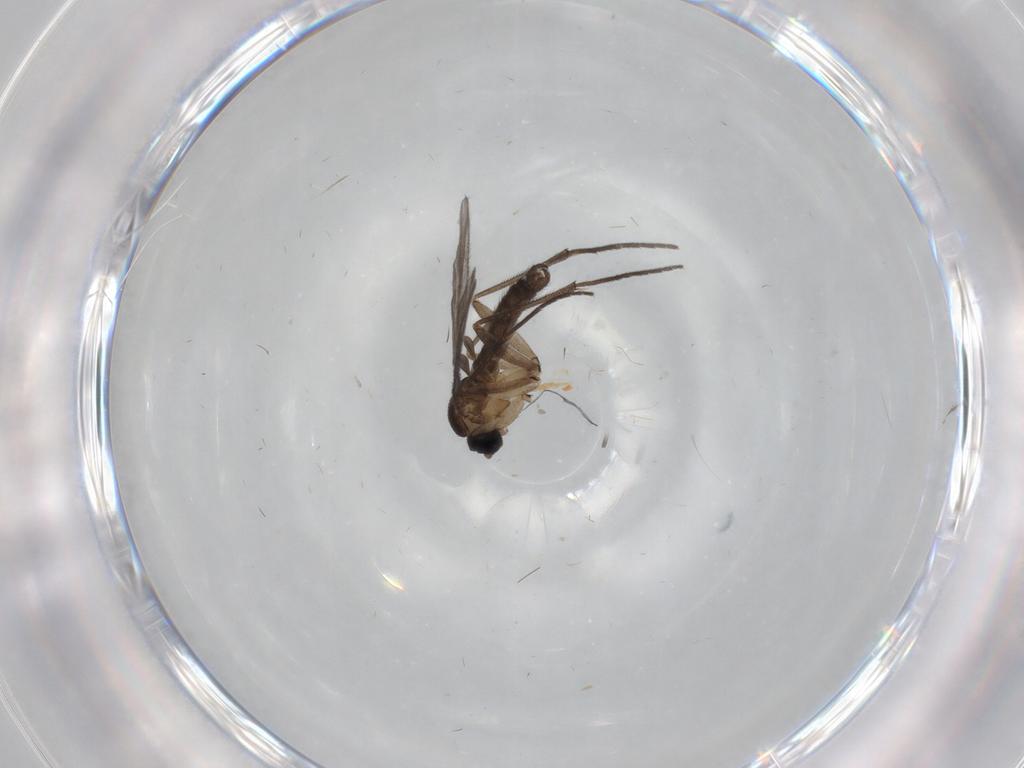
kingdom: Animalia
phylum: Arthropoda
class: Insecta
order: Diptera
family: Sciaridae
